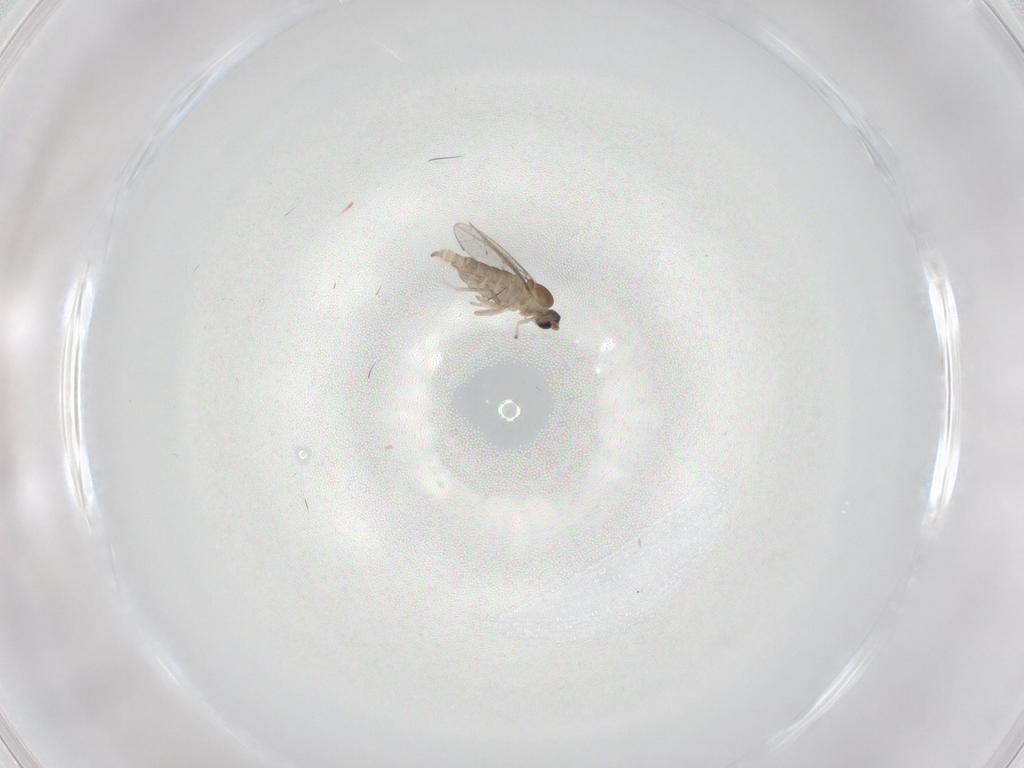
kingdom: Animalia
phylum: Arthropoda
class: Insecta
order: Diptera
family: Cecidomyiidae
